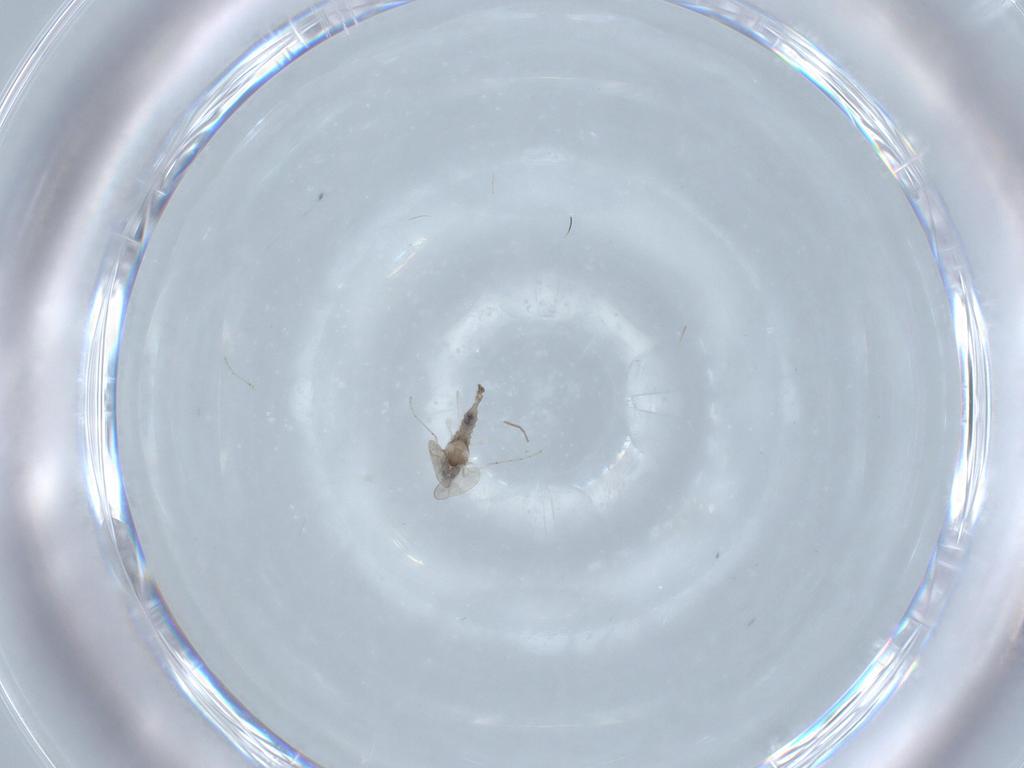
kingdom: Animalia
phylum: Arthropoda
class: Insecta
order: Diptera
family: Cecidomyiidae
